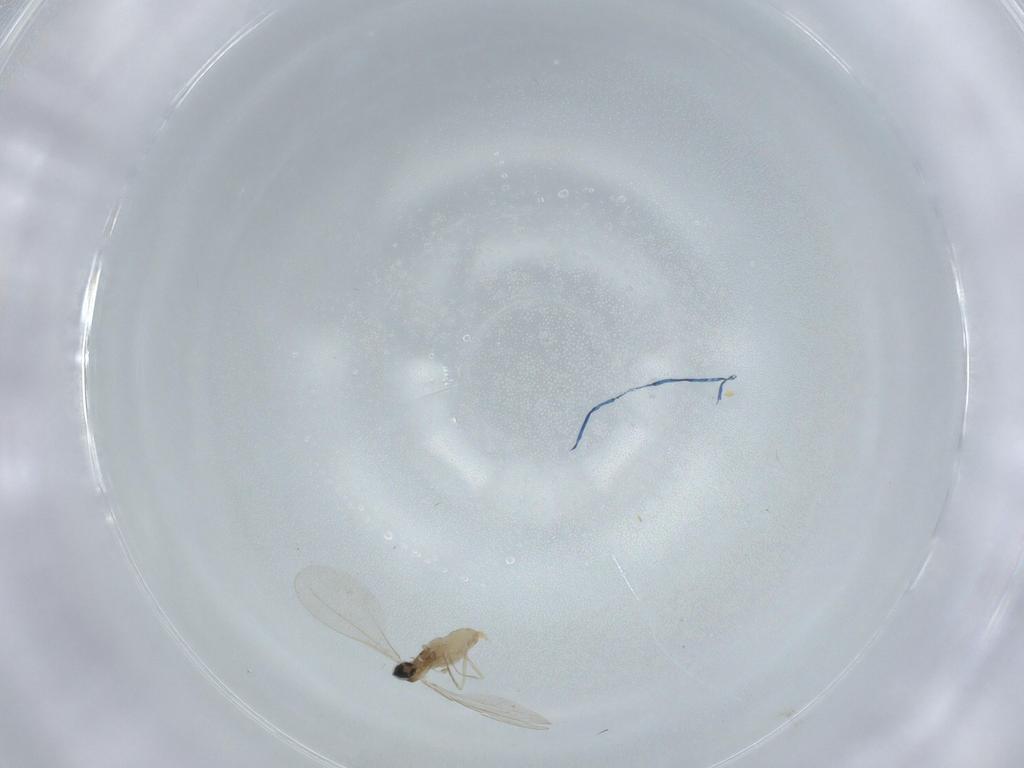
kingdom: Animalia
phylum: Arthropoda
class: Insecta
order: Diptera
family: Cecidomyiidae
